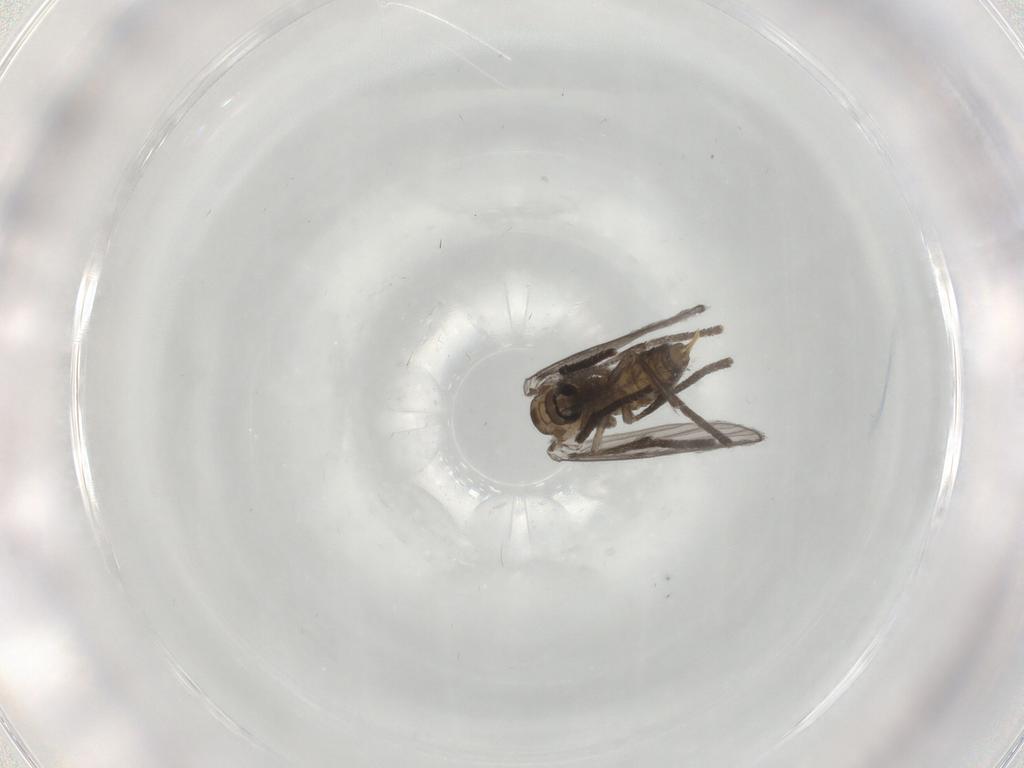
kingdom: Animalia
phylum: Arthropoda
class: Insecta
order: Diptera
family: Psychodidae
